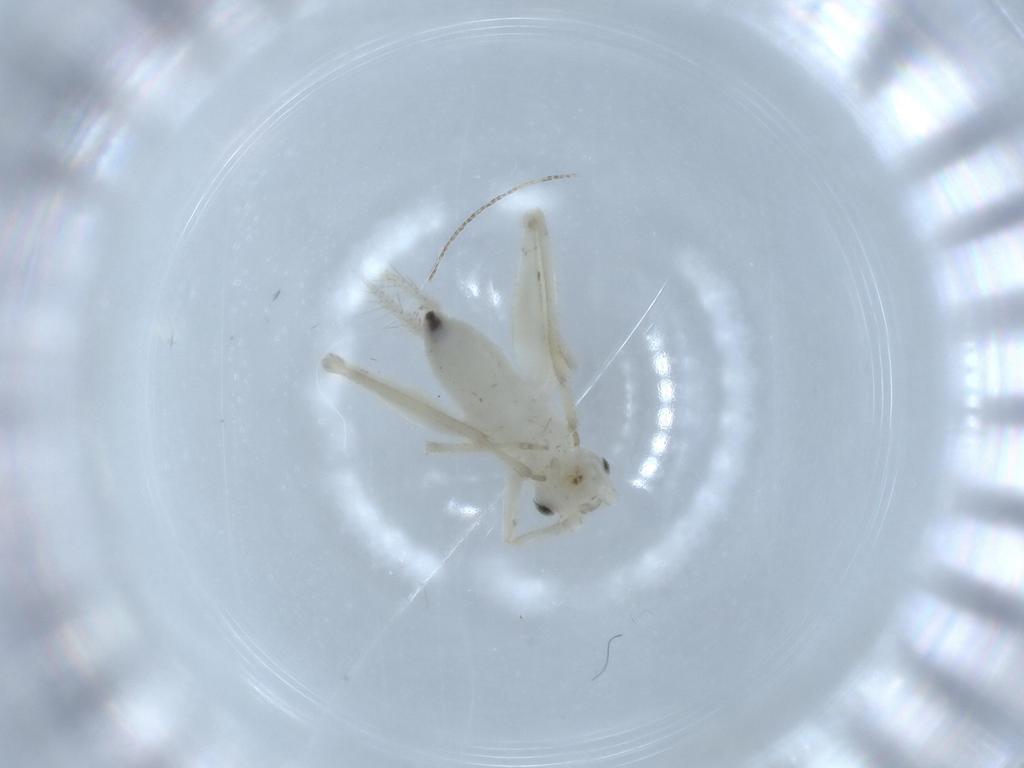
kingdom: Animalia
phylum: Arthropoda
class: Insecta
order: Orthoptera
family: Trigonidiidae
